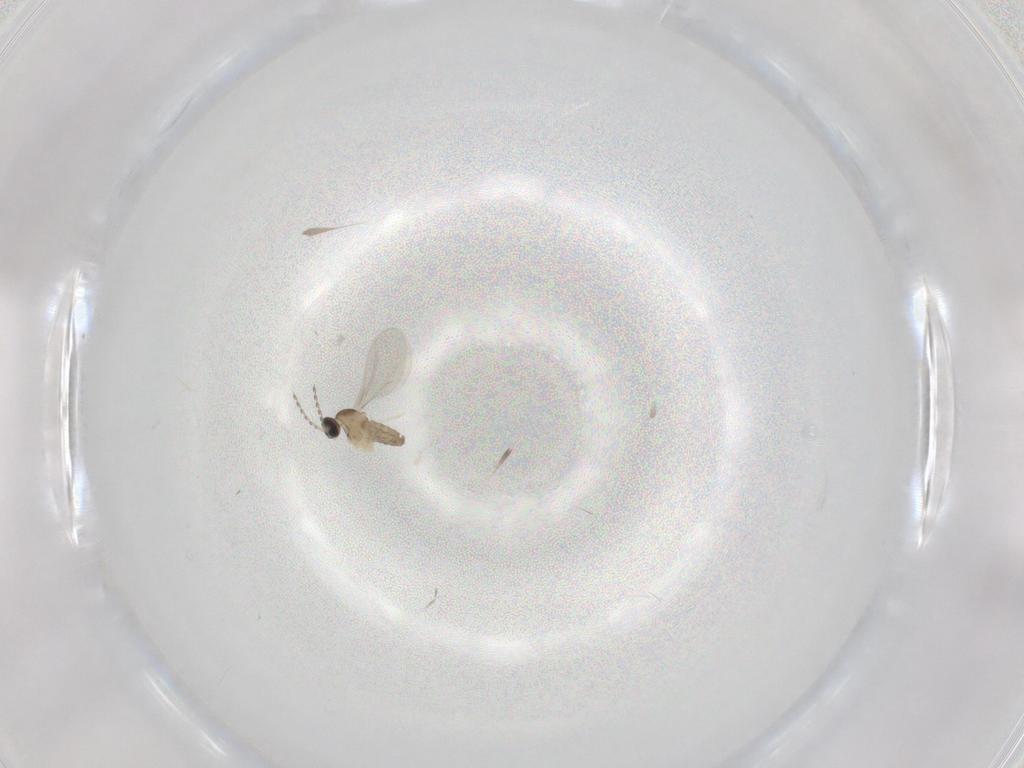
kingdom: Animalia
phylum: Arthropoda
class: Insecta
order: Diptera
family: Cecidomyiidae
